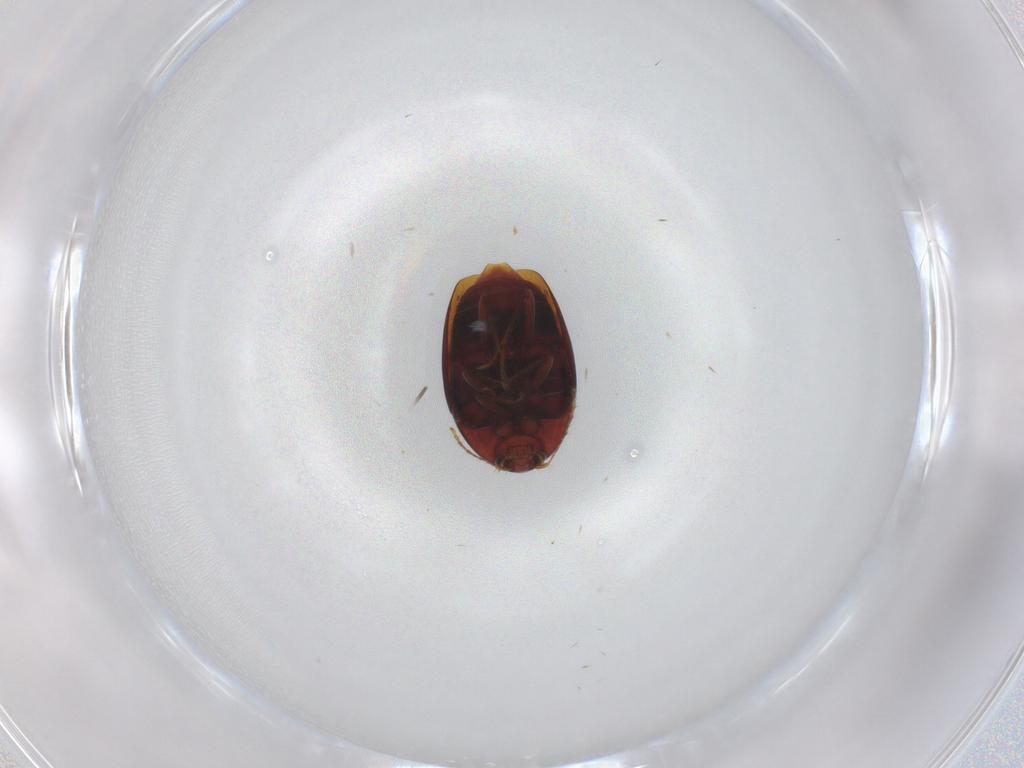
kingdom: Animalia
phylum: Arthropoda
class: Insecta
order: Coleoptera
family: Staphylinidae
